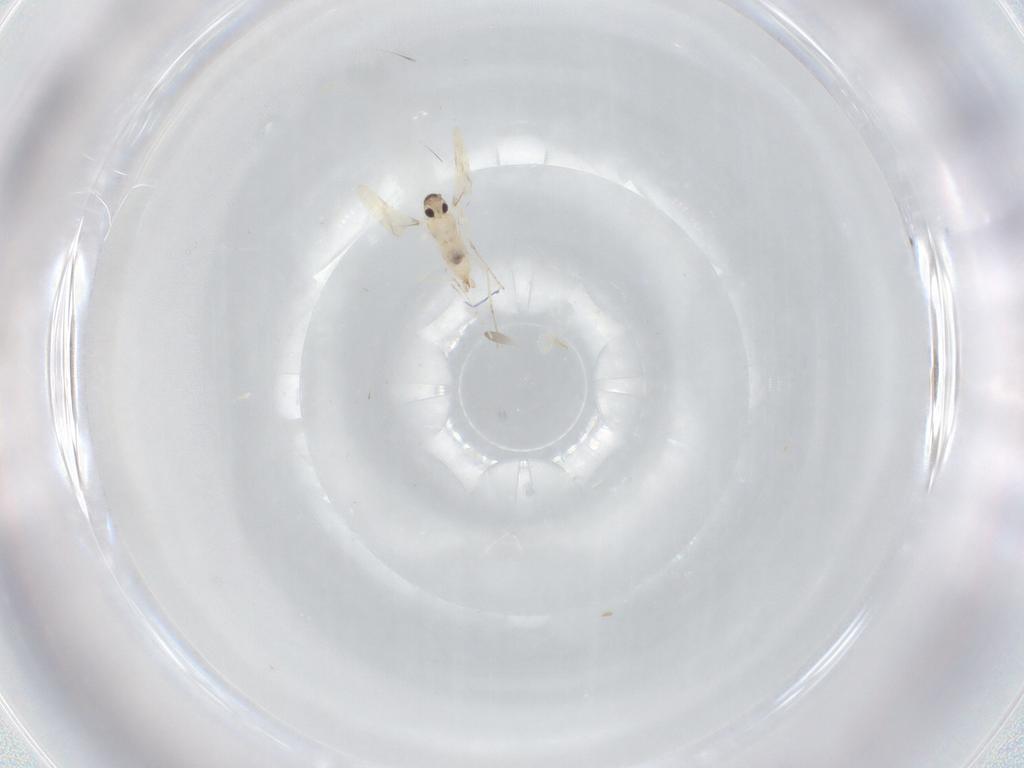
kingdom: Animalia
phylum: Arthropoda
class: Insecta
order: Diptera
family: Cecidomyiidae
